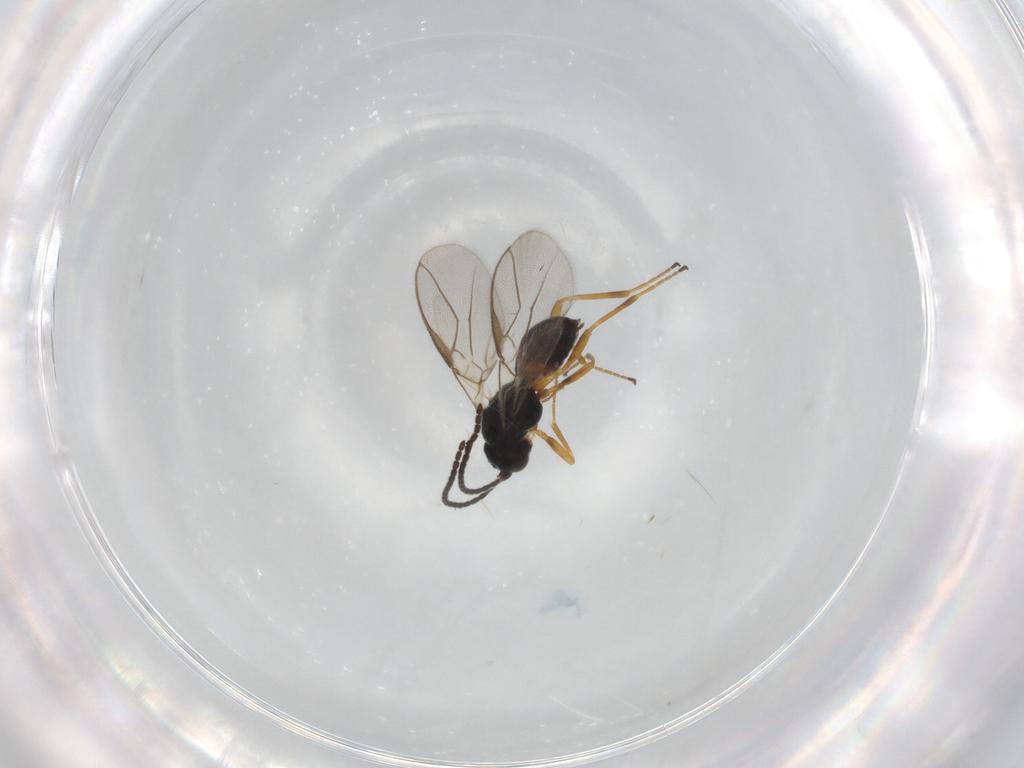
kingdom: Animalia
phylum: Arthropoda
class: Insecta
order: Hymenoptera
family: Braconidae
